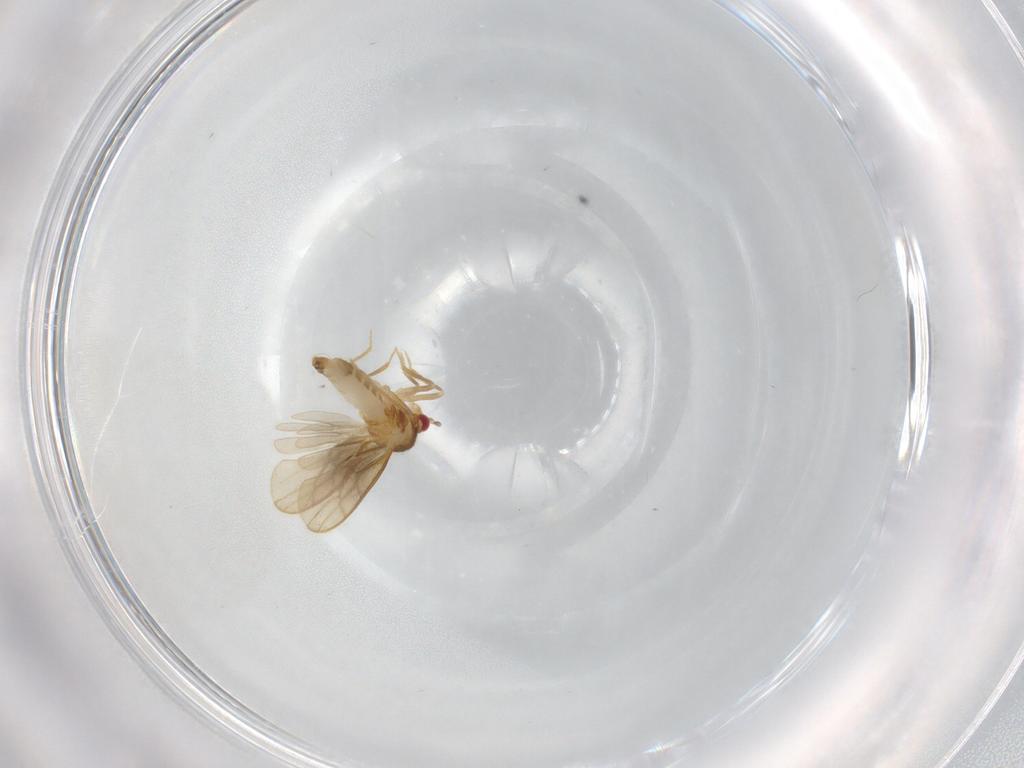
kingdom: Animalia
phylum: Arthropoda
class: Insecta
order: Hemiptera
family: Schizopteridae
